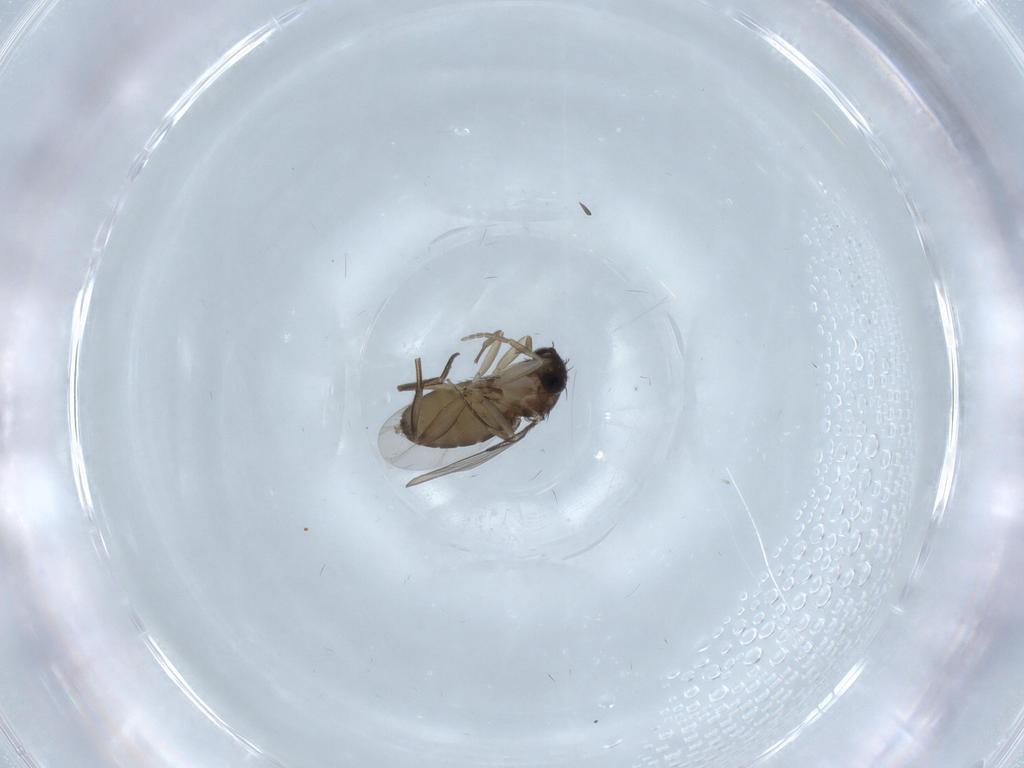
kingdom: Animalia
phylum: Arthropoda
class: Insecta
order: Diptera
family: Phoridae
